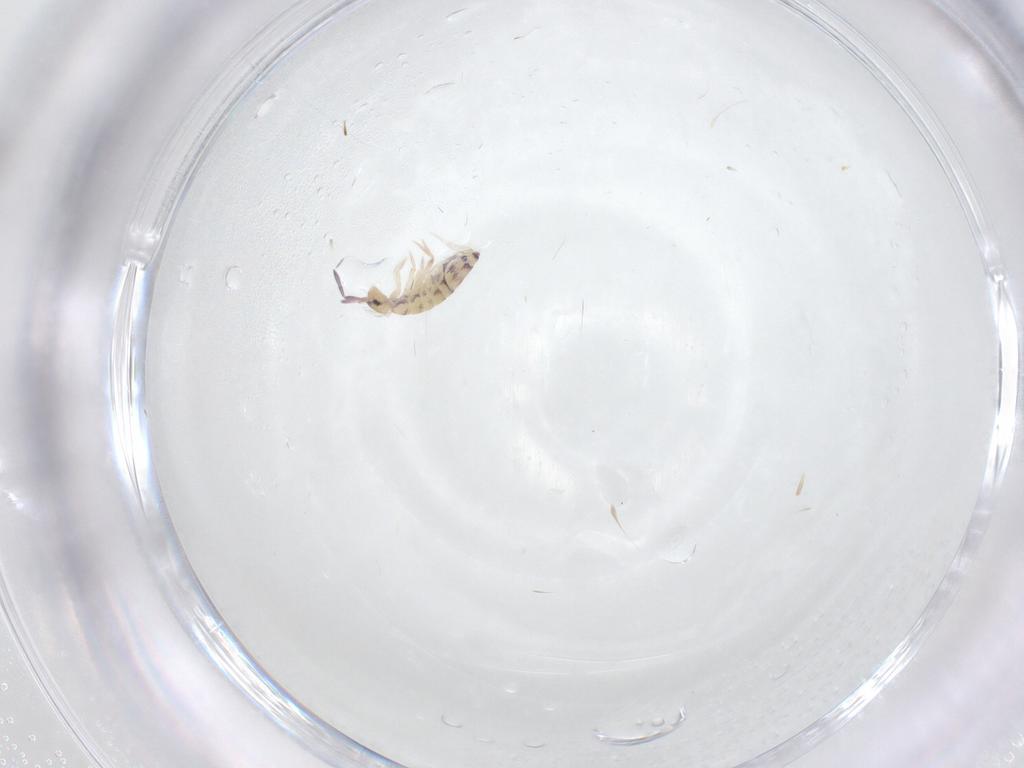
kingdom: Animalia
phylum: Arthropoda
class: Collembola
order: Entomobryomorpha
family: Entomobryidae
